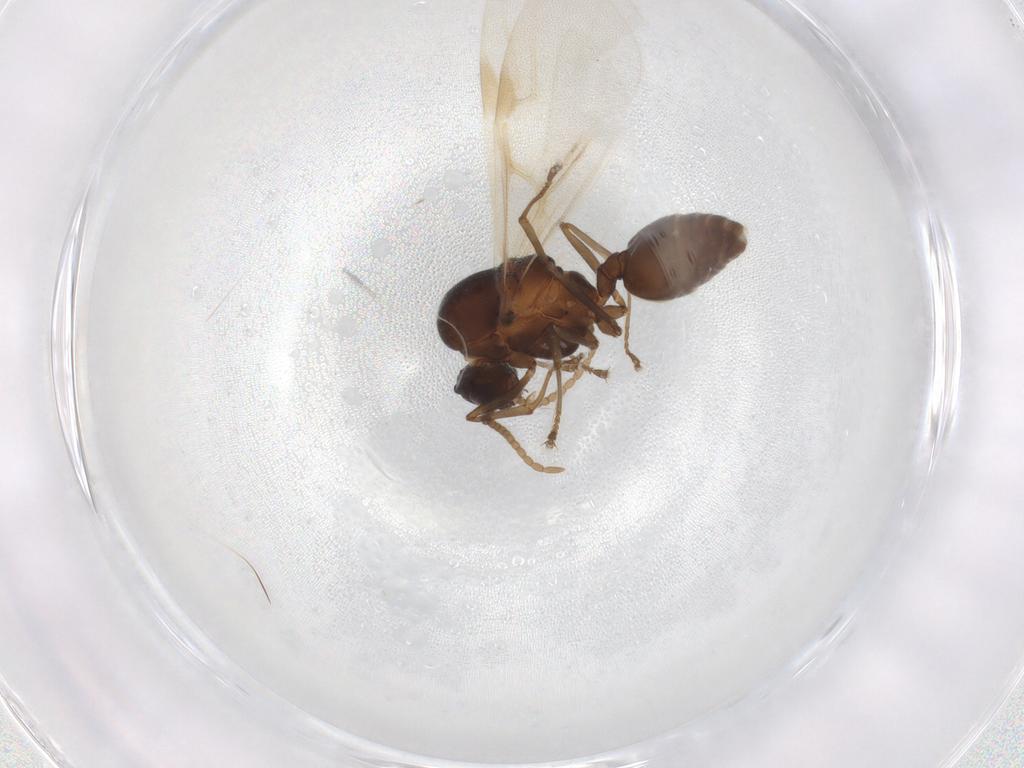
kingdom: Animalia
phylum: Arthropoda
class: Insecta
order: Hymenoptera
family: Formicidae
